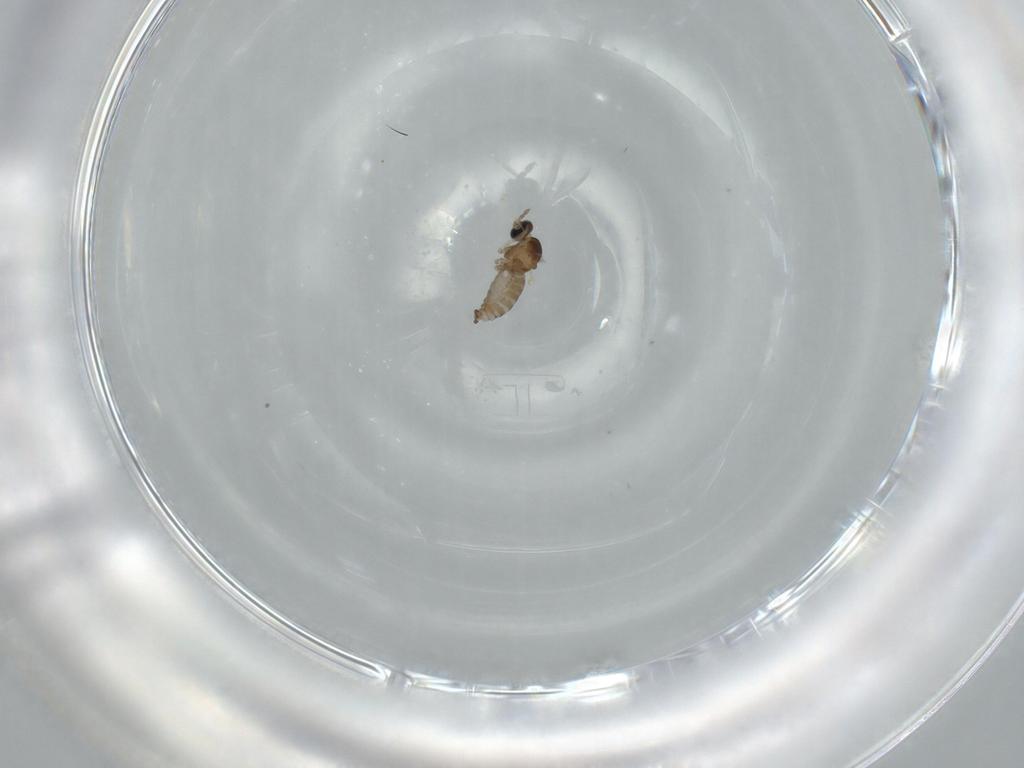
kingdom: Animalia
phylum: Arthropoda
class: Insecta
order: Diptera
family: Cecidomyiidae
